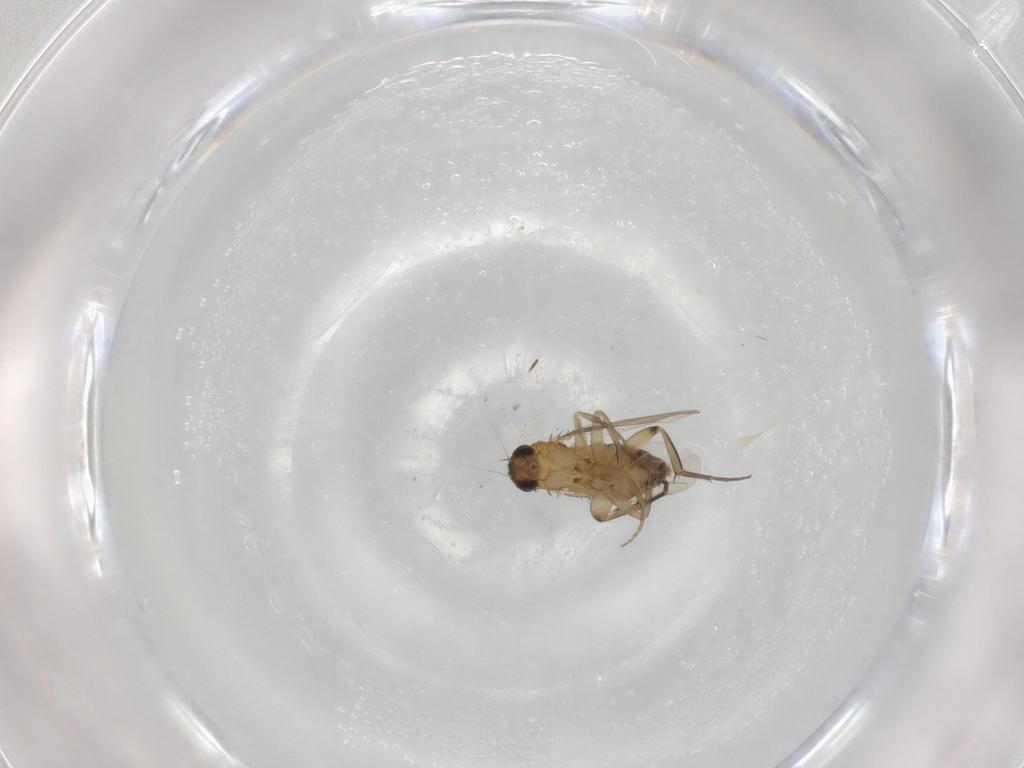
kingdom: Animalia
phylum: Arthropoda
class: Insecta
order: Diptera
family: Phoridae
